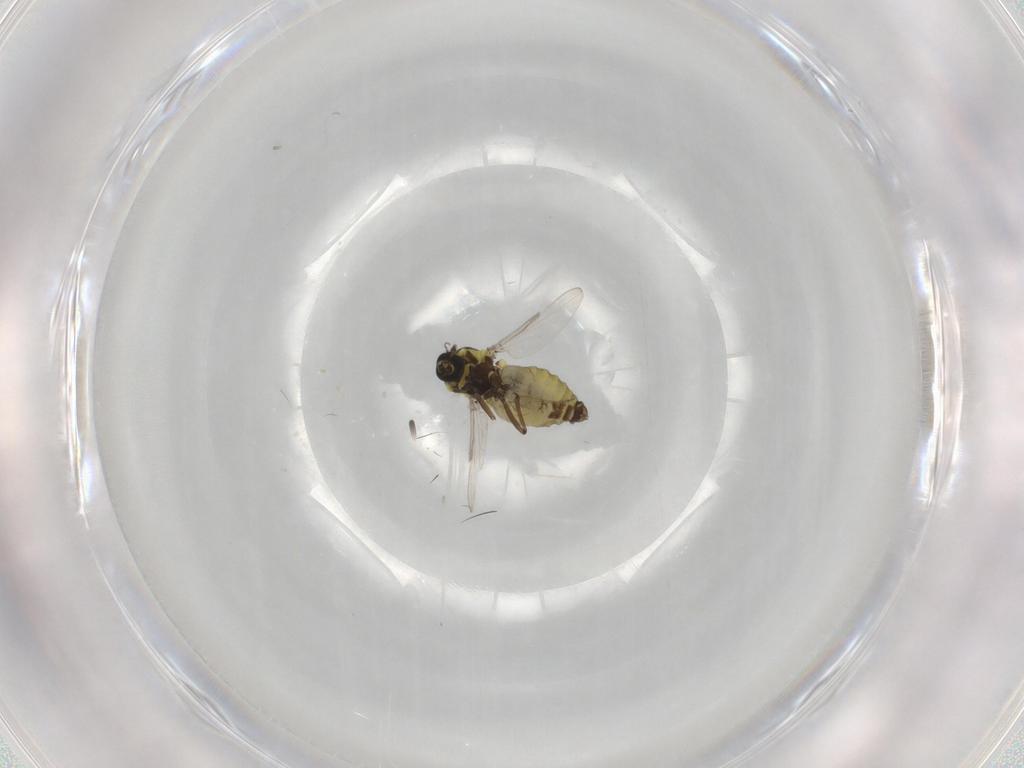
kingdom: Animalia
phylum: Arthropoda
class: Insecta
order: Diptera
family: Ceratopogonidae
